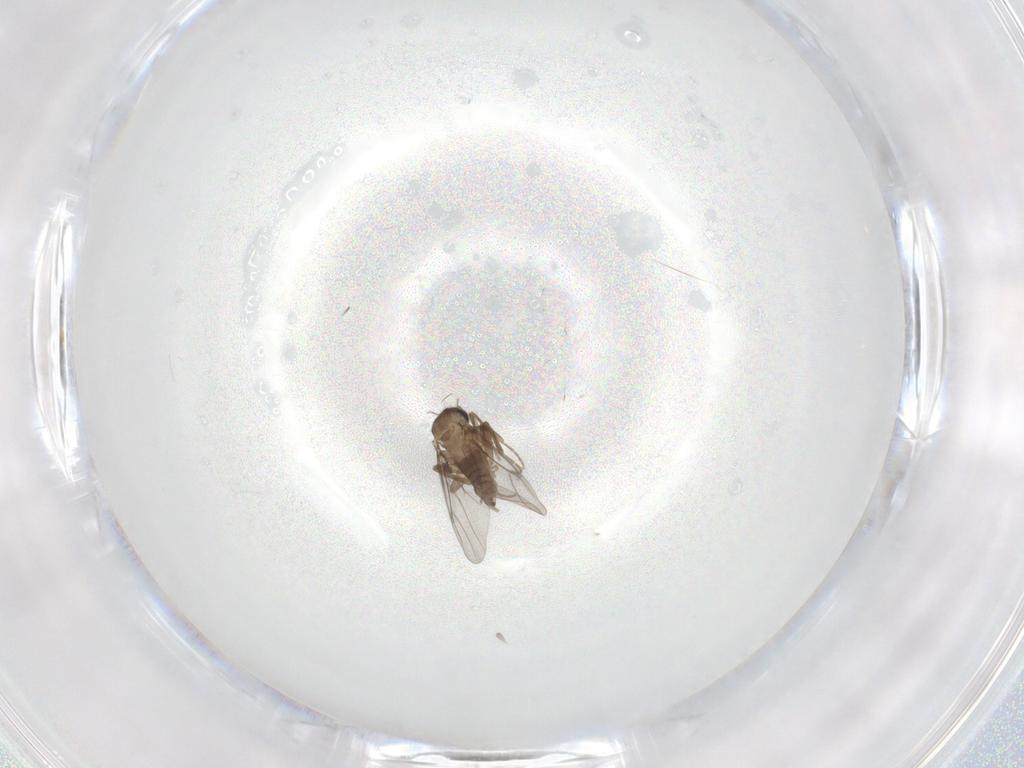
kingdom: Animalia
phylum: Arthropoda
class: Insecta
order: Diptera
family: Sciaridae
